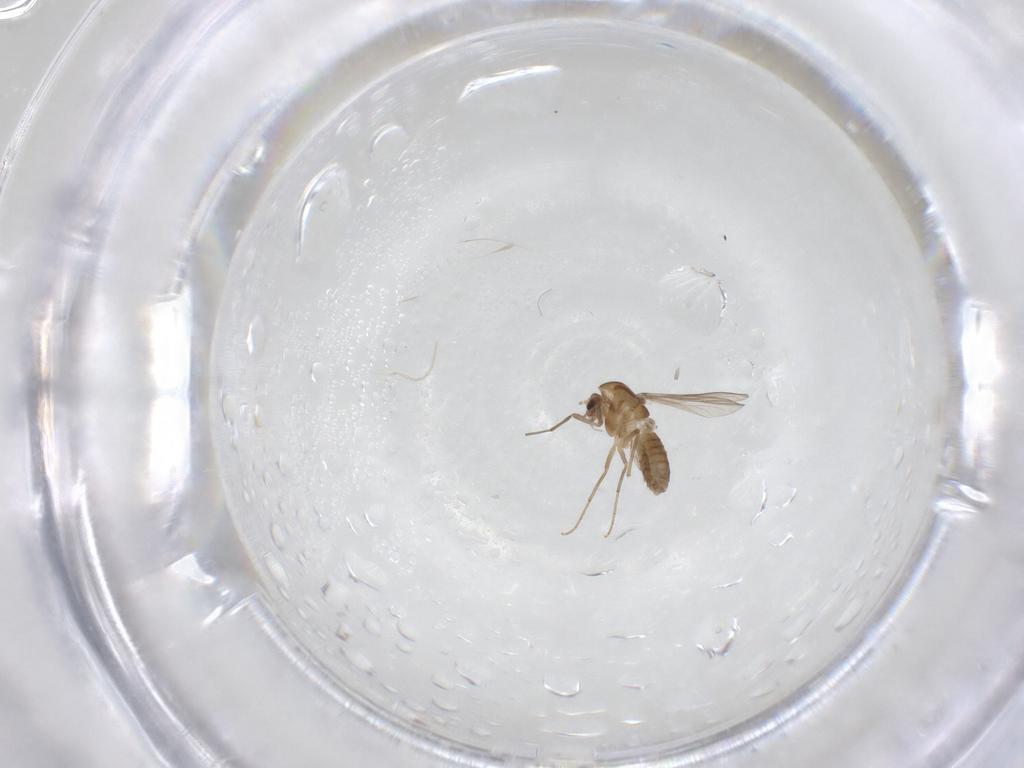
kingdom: Animalia
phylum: Arthropoda
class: Insecta
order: Diptera
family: Chironomidae
